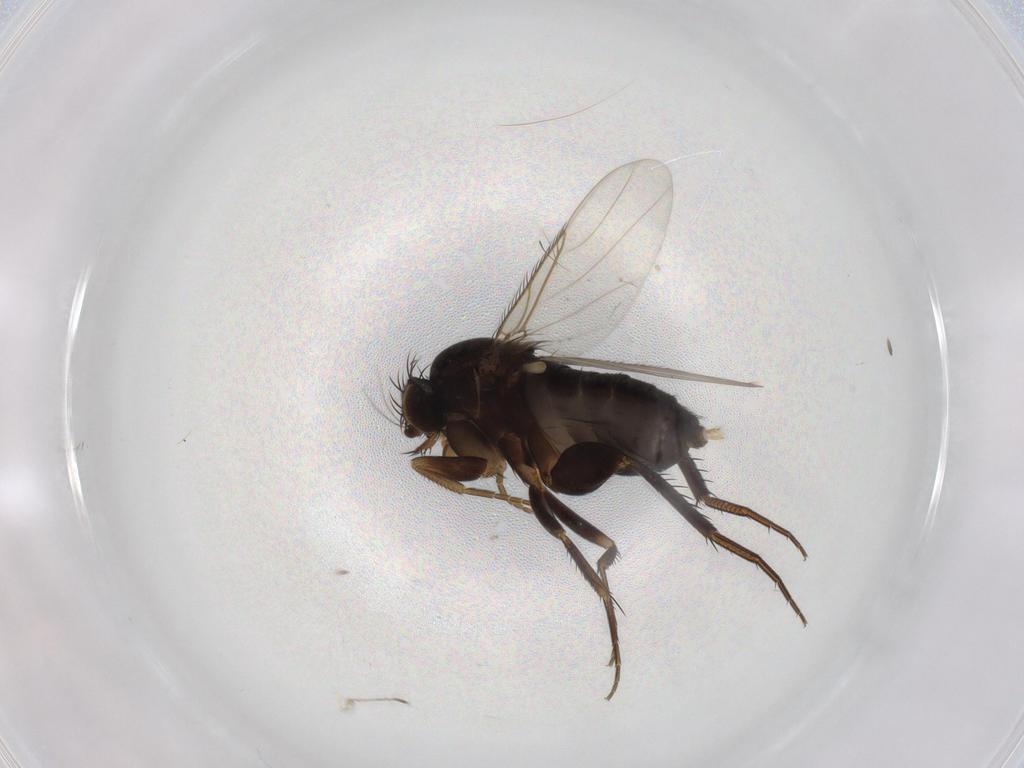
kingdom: Animalia
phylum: Arthropoda
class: Insecta
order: Diptera
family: Phoridae
